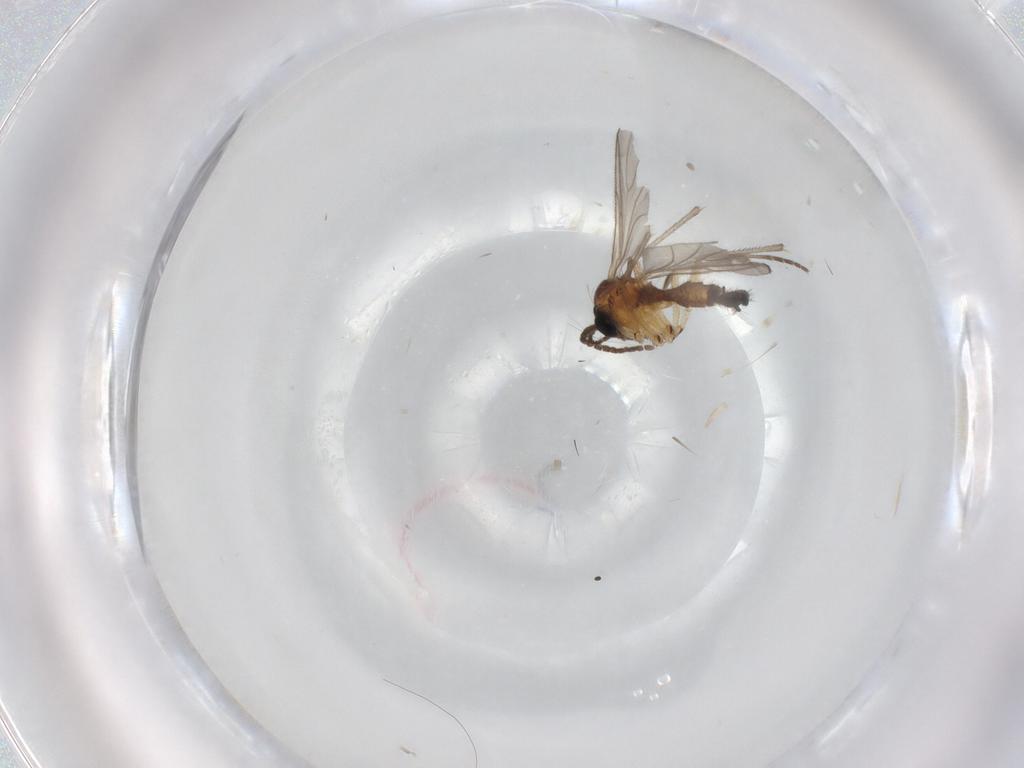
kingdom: Animalia
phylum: Arthropoda
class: Insecta
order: Diptera
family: Sciaridae
